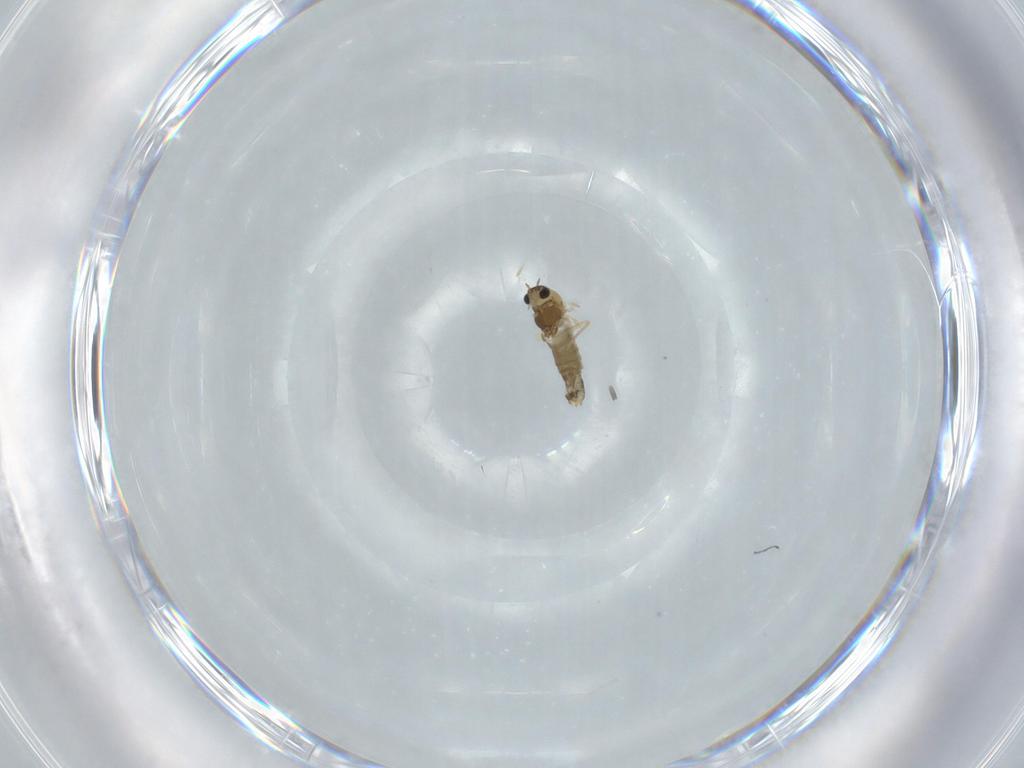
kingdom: Animalia
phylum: Arthropoda
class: Insecta
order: Diptera
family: Chironomidae
